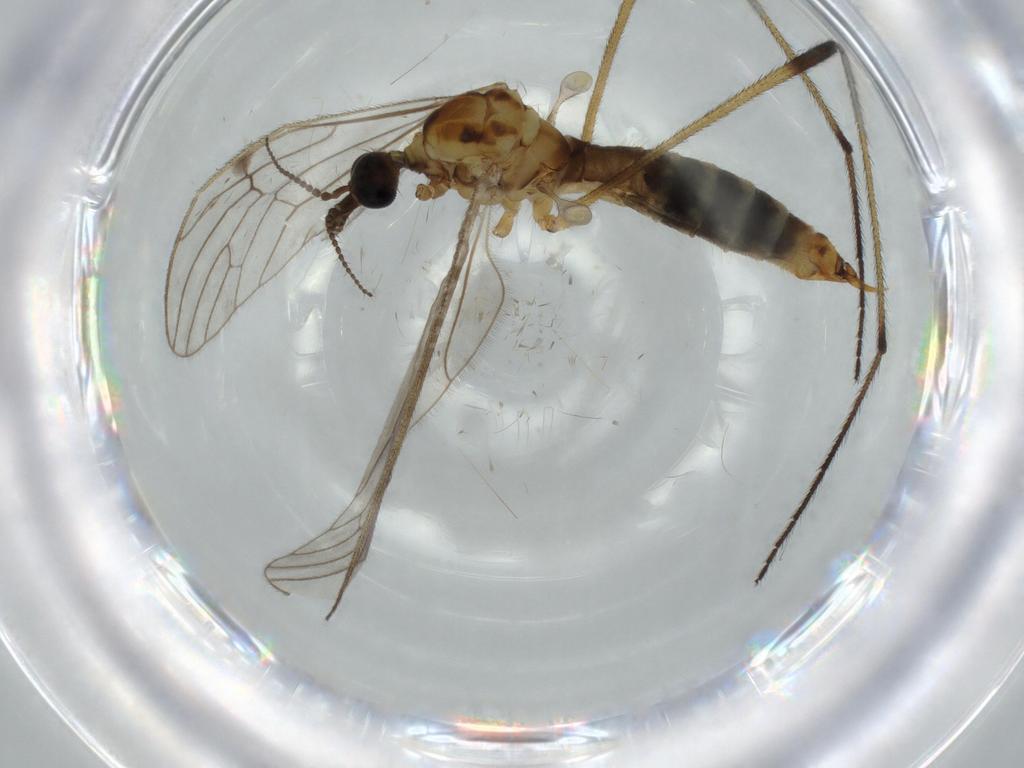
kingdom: Animalia
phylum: Arthropoda
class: Insecta
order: Diptera
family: Limoniidae
